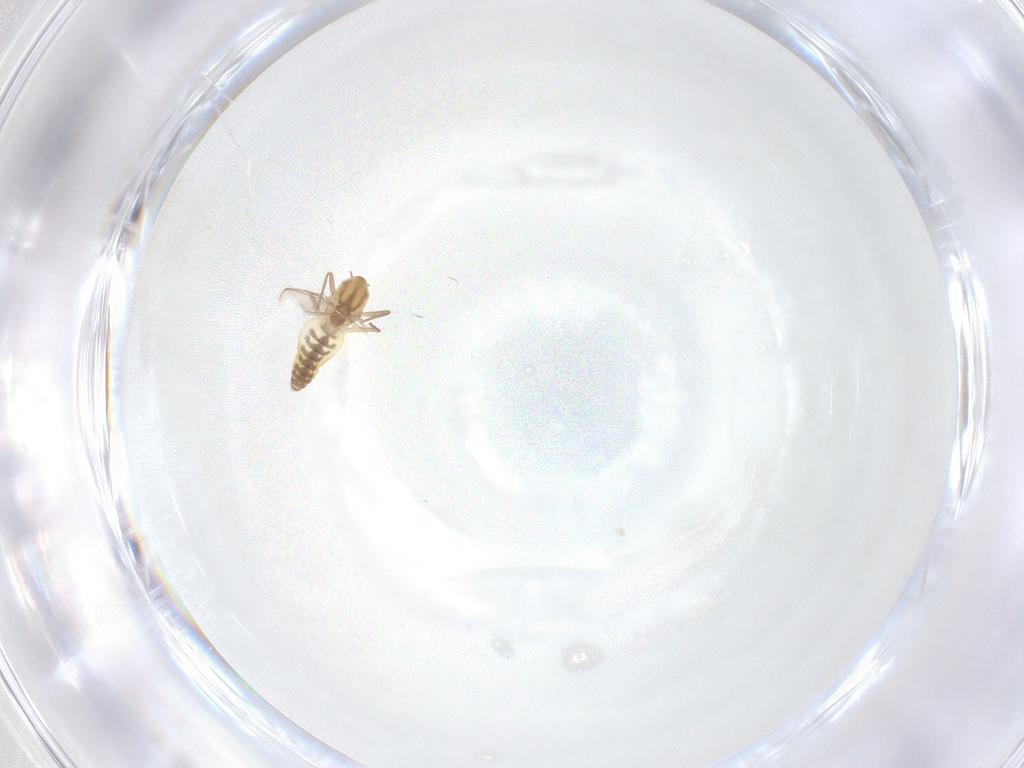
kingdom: Animalia
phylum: Arthropoda
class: Insecta
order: Diptera
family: Chironomidae
